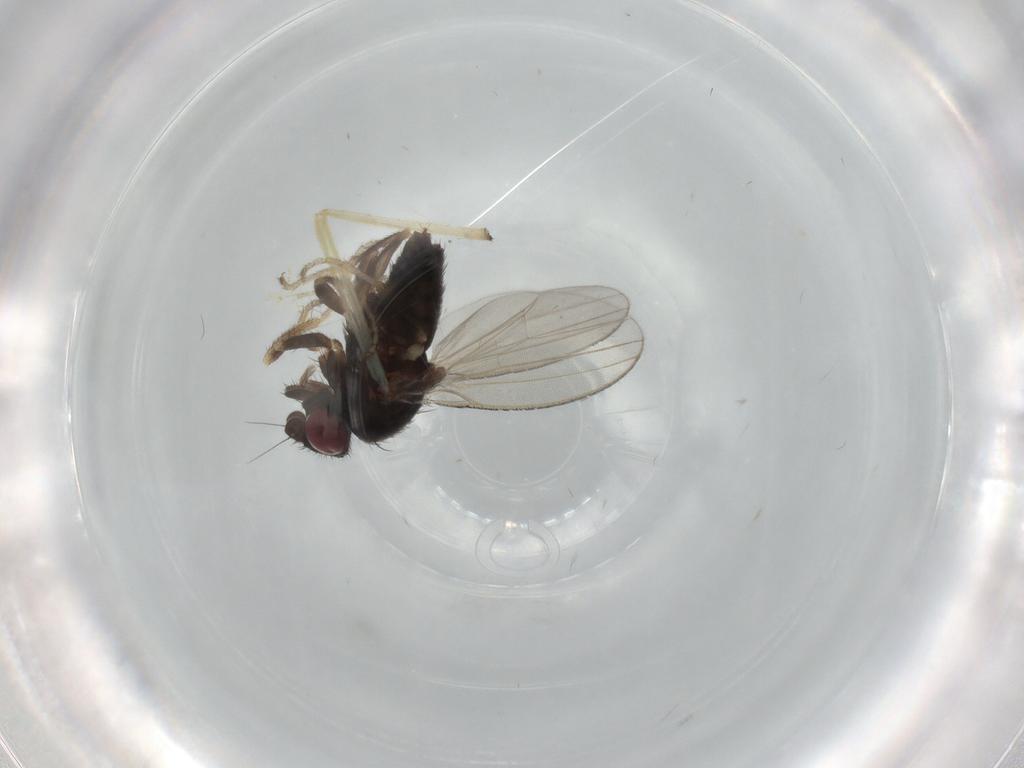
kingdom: Animalia
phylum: Arthropoda
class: Insecta
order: Diptera
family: Milichiidae
